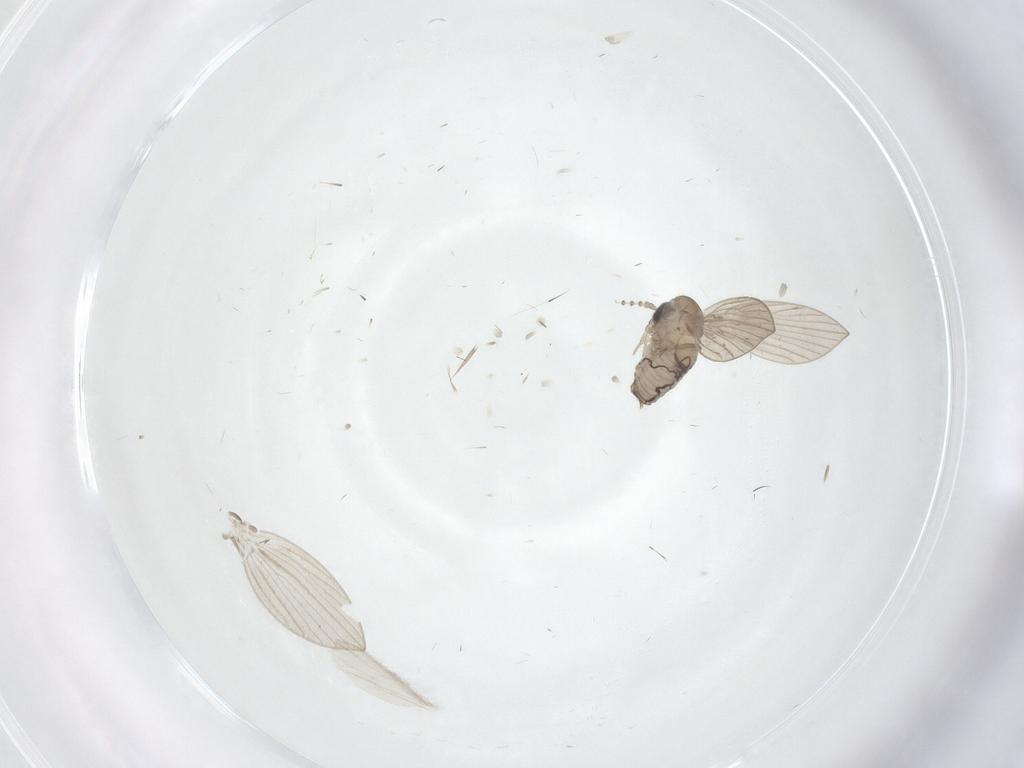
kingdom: Animalia
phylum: Arthropoda
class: Insecta
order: Diptera
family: Psychodidae
